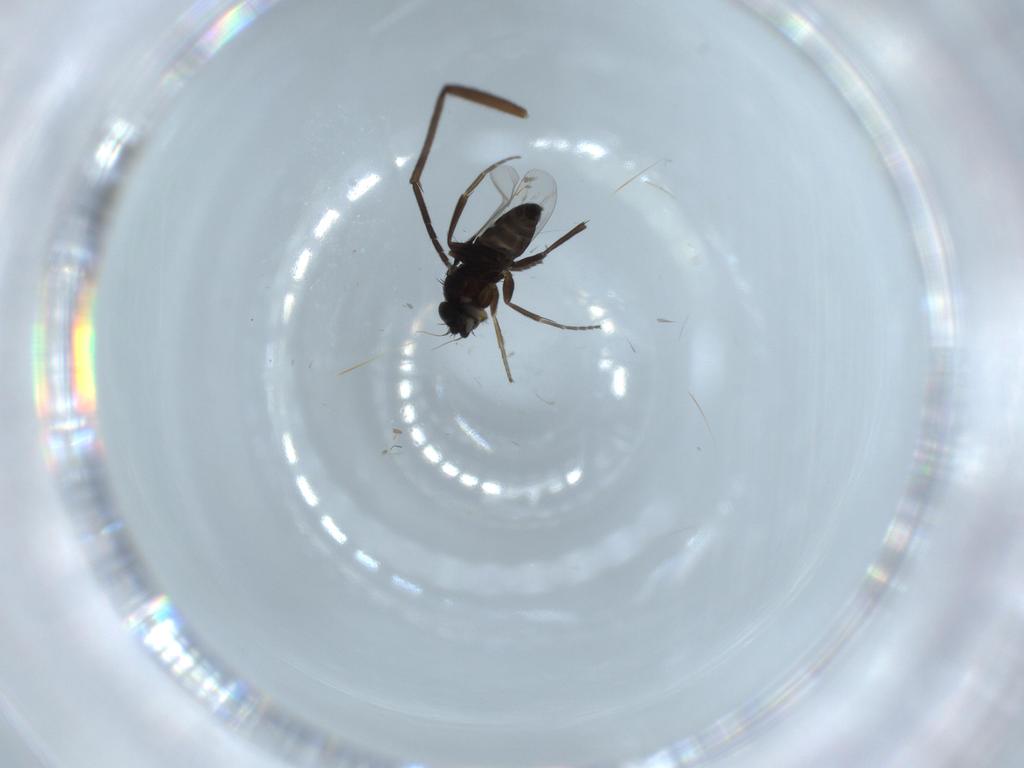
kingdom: Animalia
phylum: Arthropoda
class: Insecta
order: Diptera
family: Sciaridae
